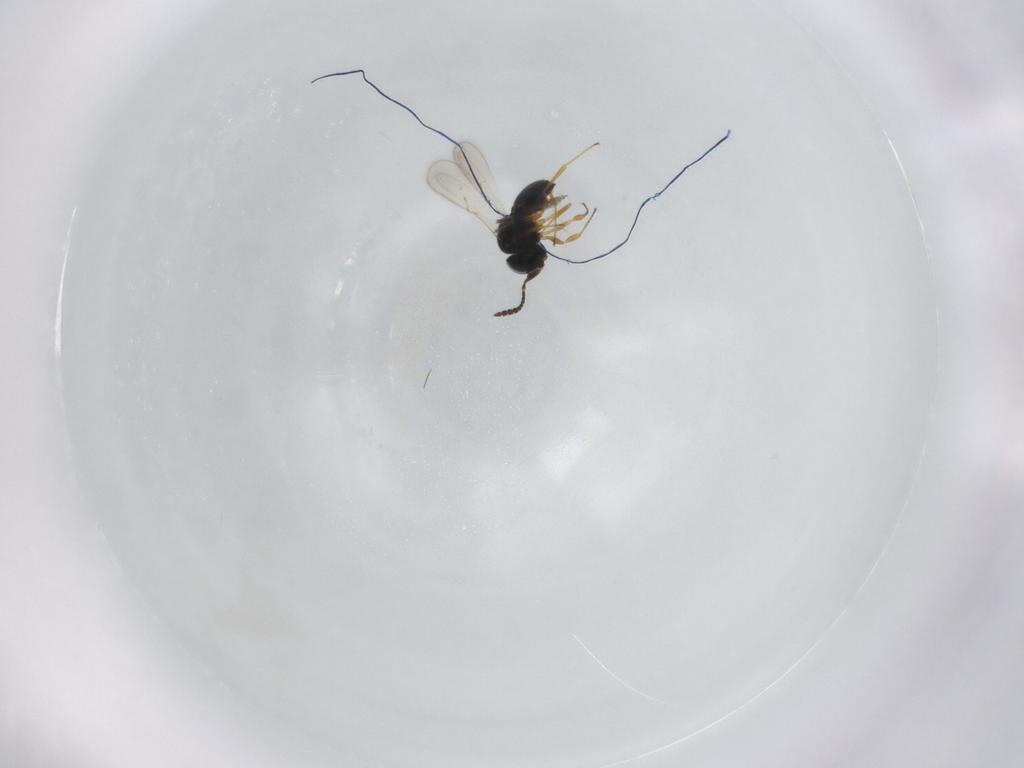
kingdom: Animalia
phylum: Arthropoda
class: Insecta
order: Hymenoptera
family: Scelionidae
